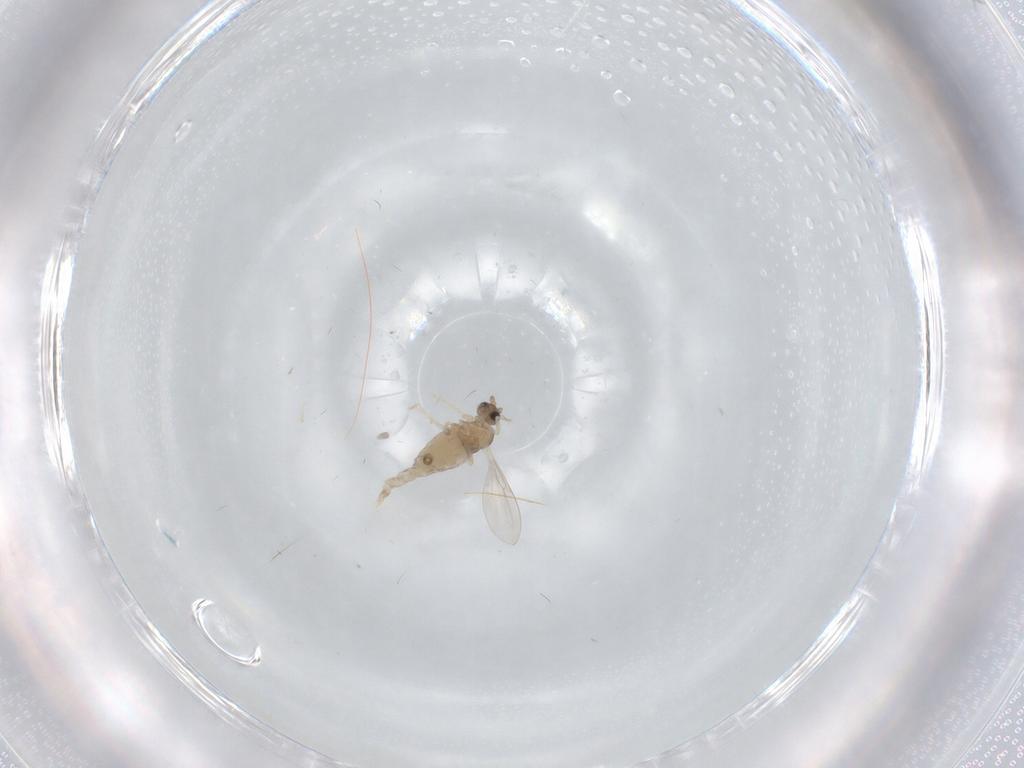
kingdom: Animalia
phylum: Arthropoda
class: Insecta
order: Diptera
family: Cecidomyiidae
